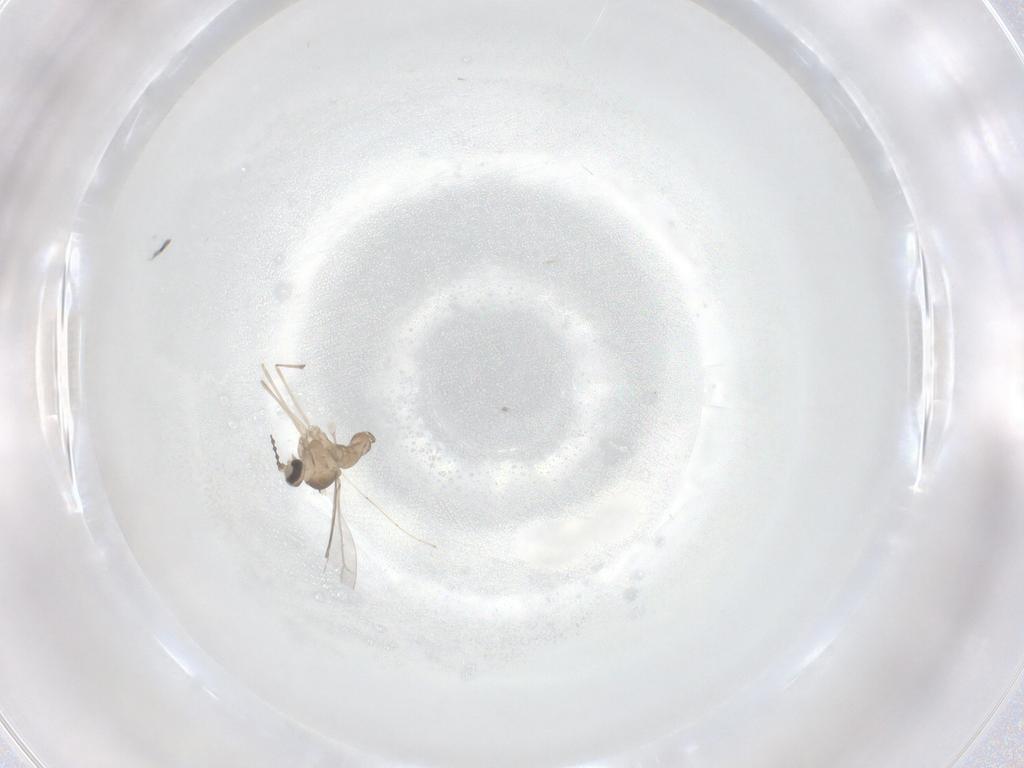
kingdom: Animalia
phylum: Arthropoda
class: Insecta
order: Diptera
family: Cecidomyiidae
